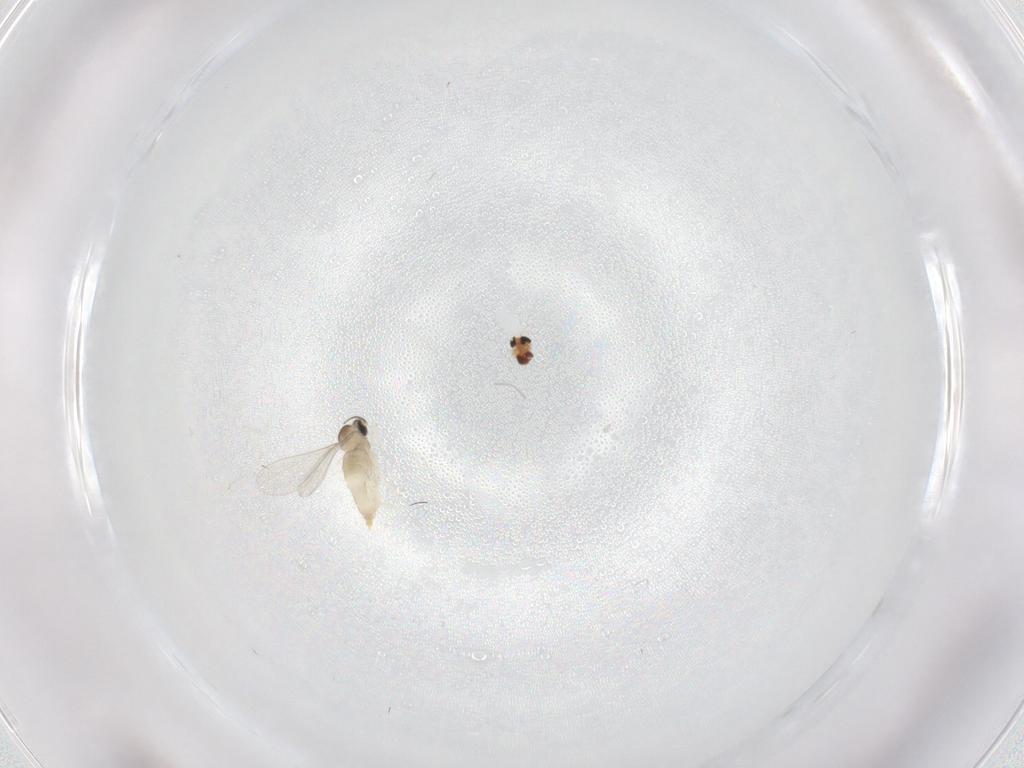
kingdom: Animalia
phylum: Arthropoda
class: Insecta
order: Diptera
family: Cecidomyiidae
